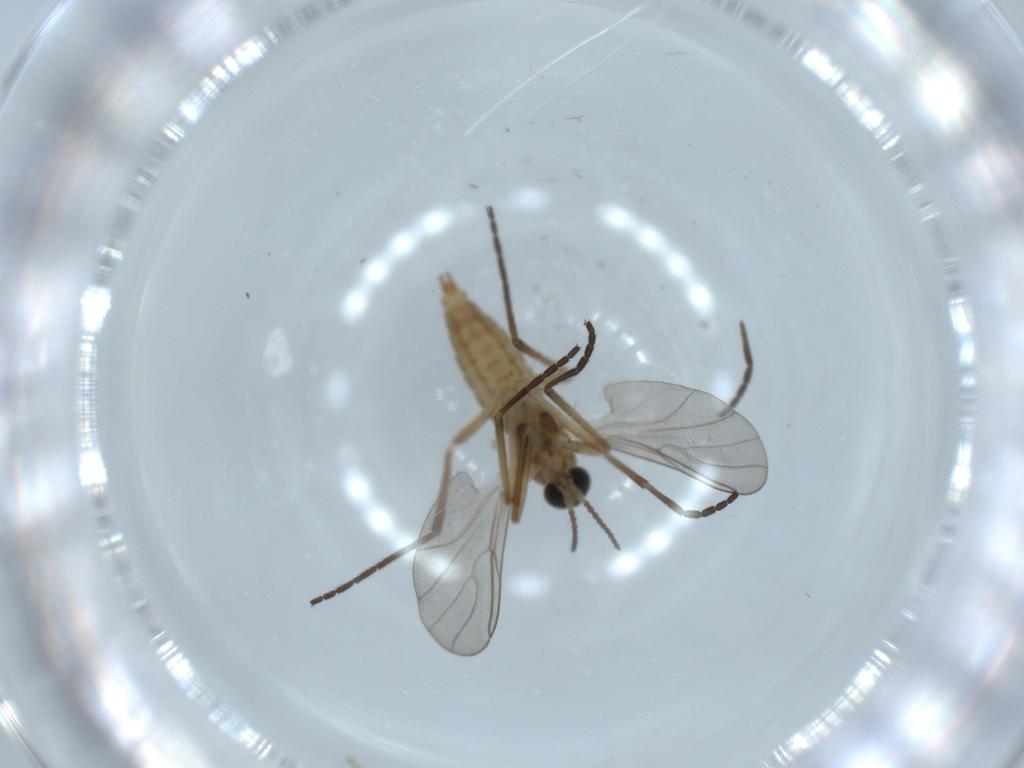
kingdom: Animalia
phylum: Arthropoda
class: Insecta
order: Diptera
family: Cecidomyiidae
